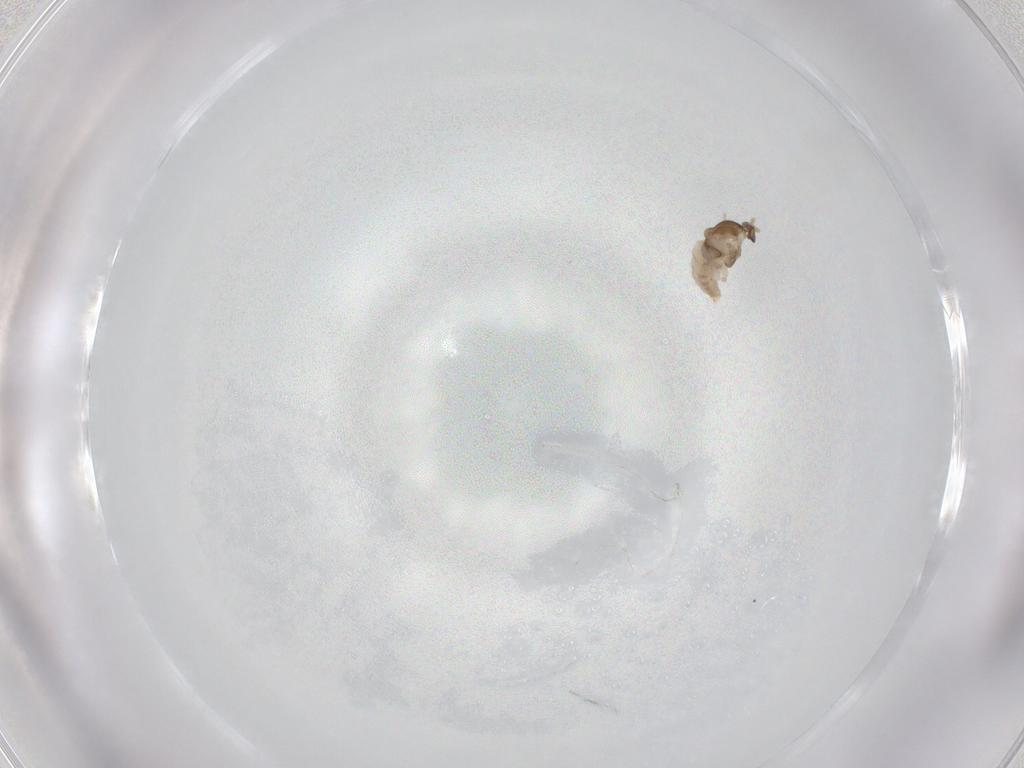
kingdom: Animalia
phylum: Arthropoda
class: Insecta
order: Diptera
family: Cecidomyiidae
